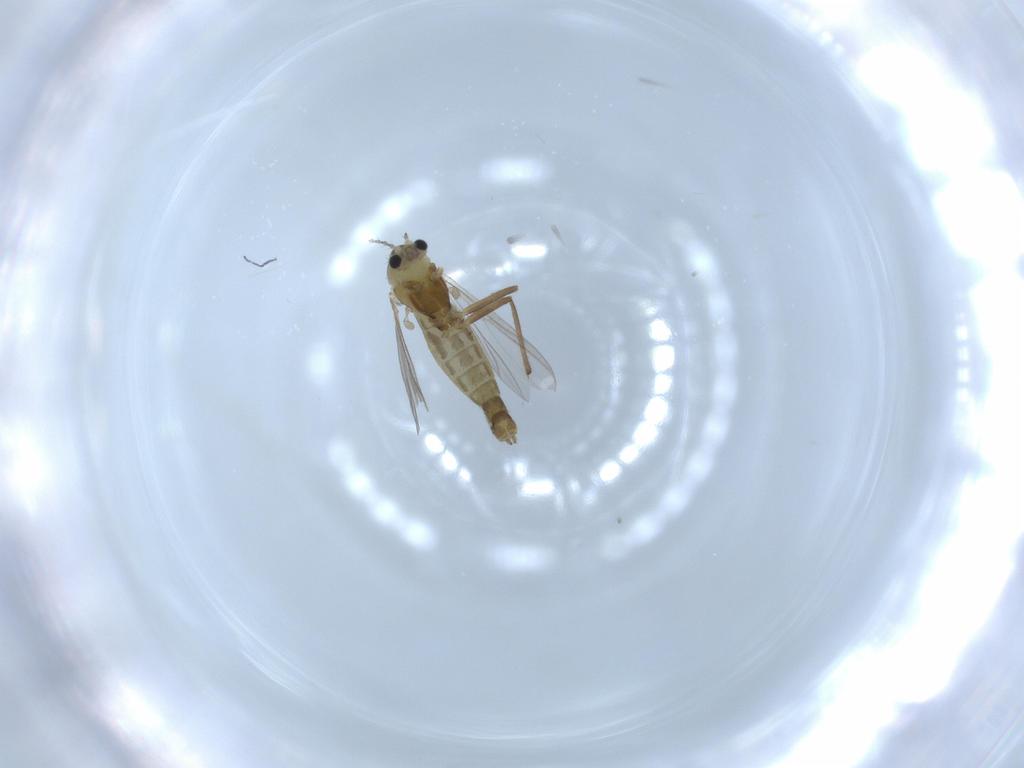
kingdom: Animalia
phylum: Arthropoda
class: Insecta
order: Diptera
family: Chironomidae
